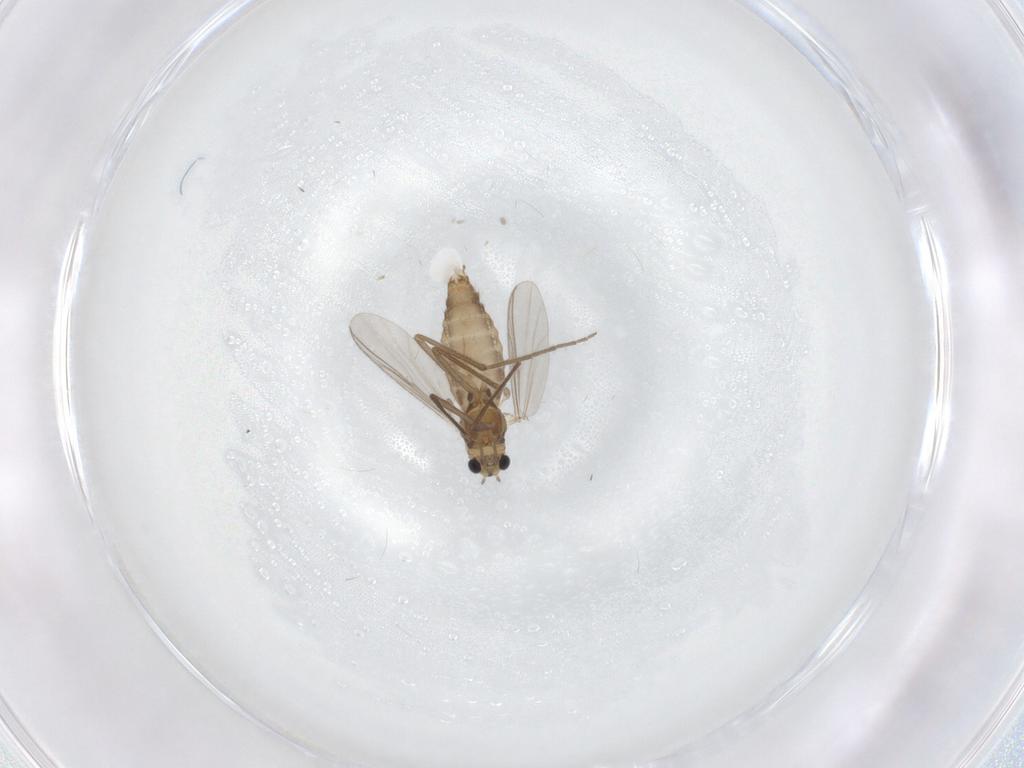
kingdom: Animalia
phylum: Arthropoda
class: Insecta
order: Diptera
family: Chironomidae
